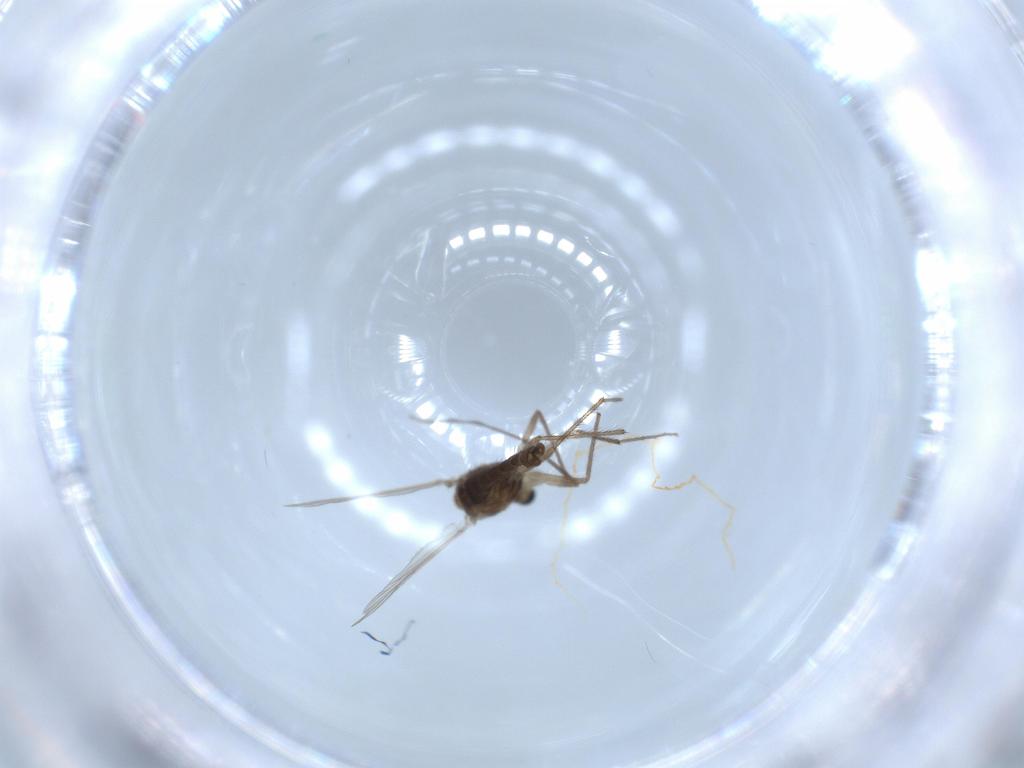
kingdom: Animalia
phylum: Arthropoda
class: Insecta
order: Diptera
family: Chironomidae
